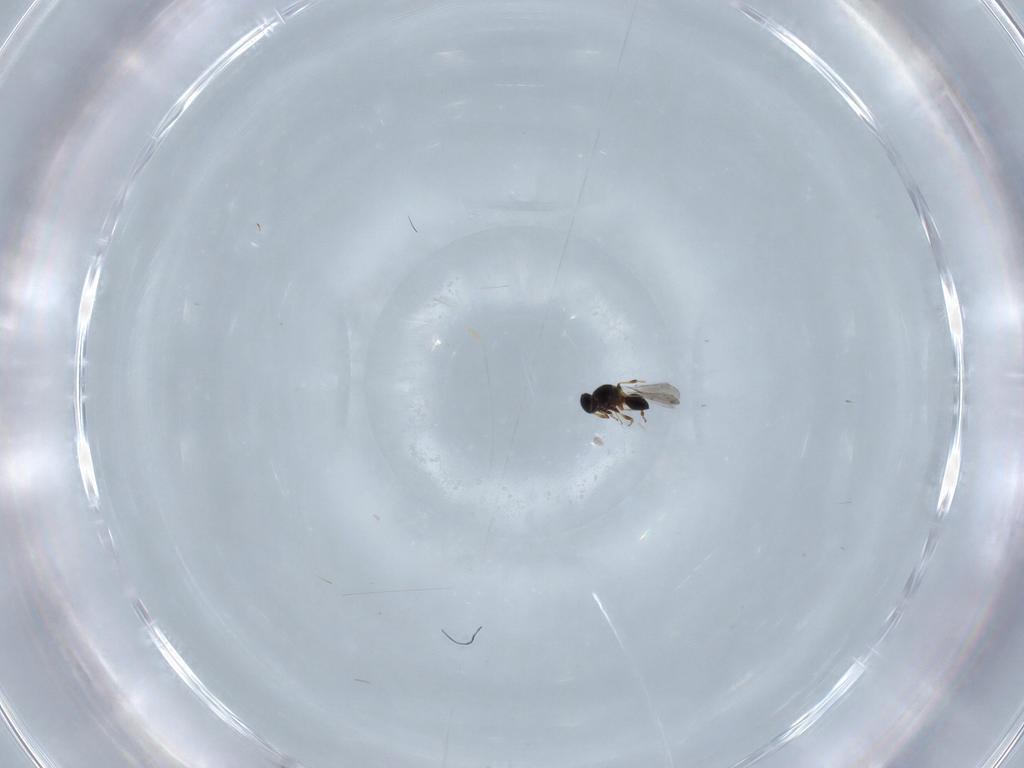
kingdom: Animalia
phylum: Arthropoda
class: Insecta
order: Hymenoptera
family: Platygastridae
